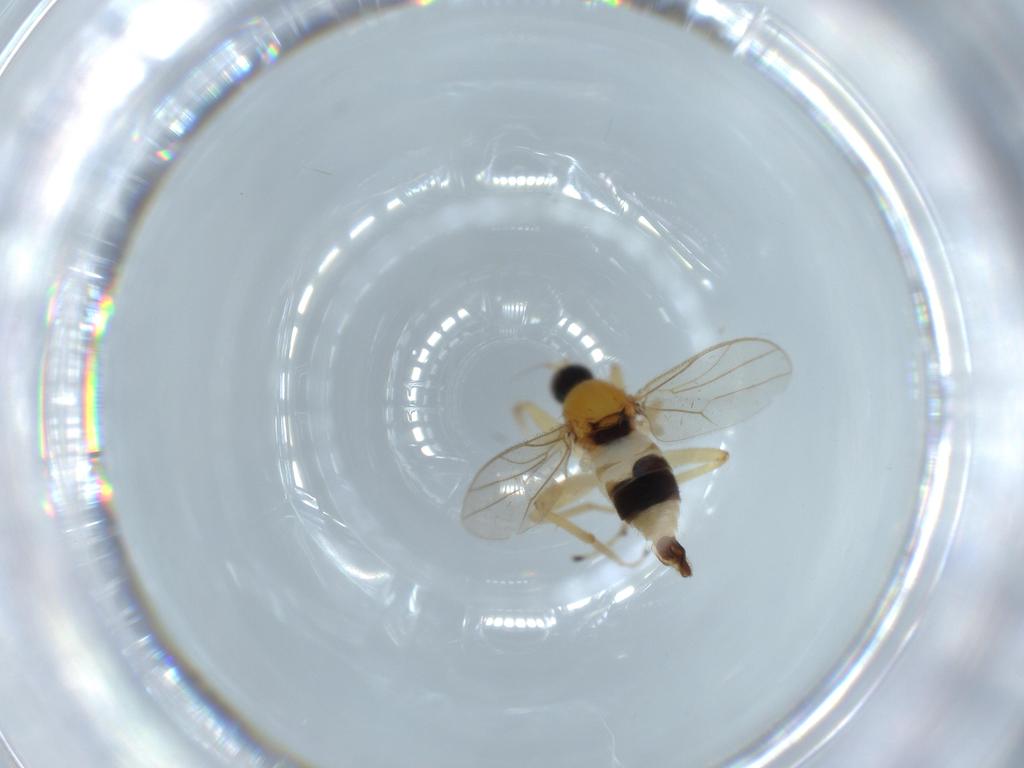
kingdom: Animalia
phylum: Arthropoda
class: Insecta
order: Diptera
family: Hybotidae
